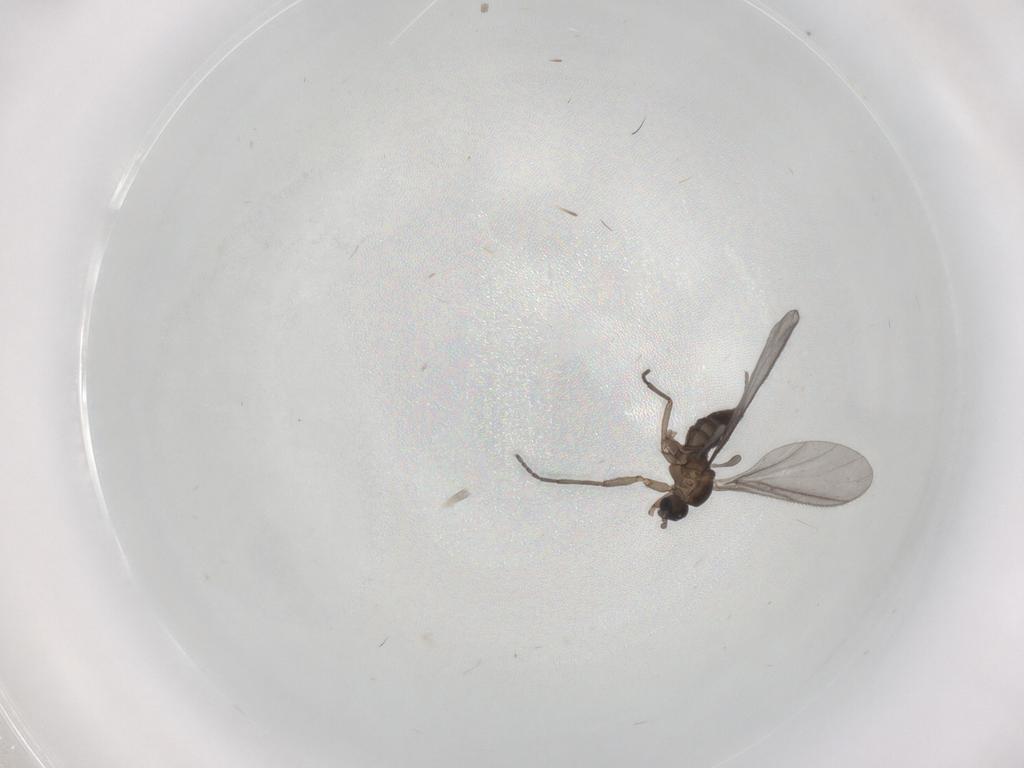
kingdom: Animalia
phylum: Arthropoda
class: Insecta
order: Diptera
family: Sciaridae
